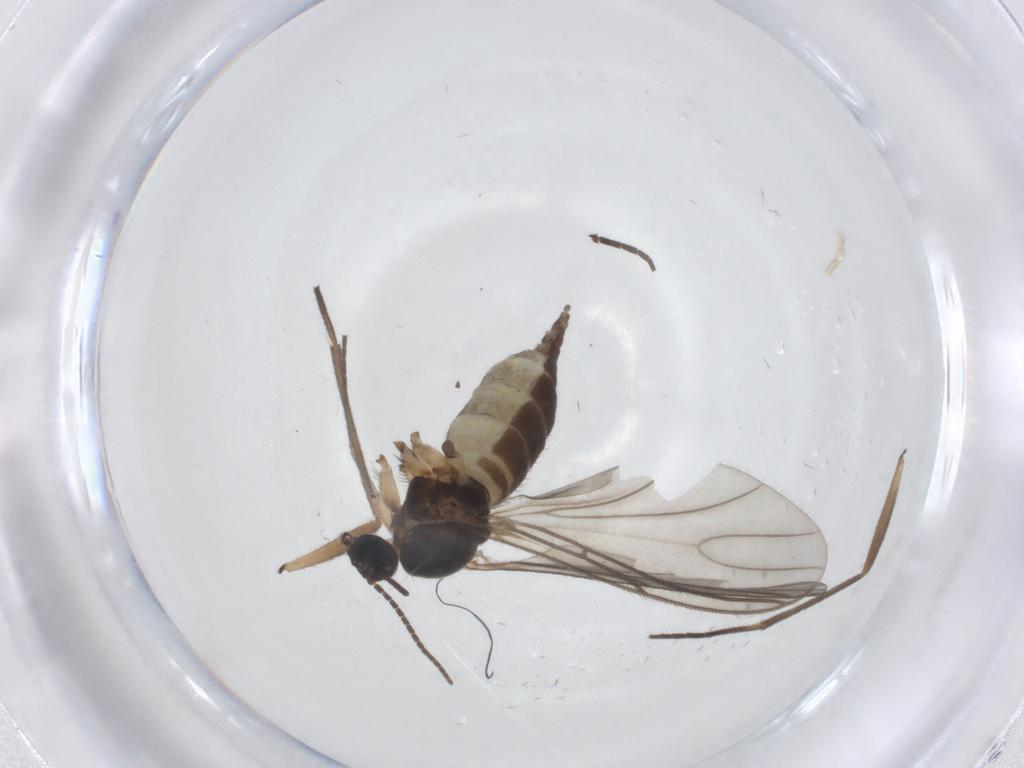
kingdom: Animalia
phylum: Arthropoda
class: Insecta
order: Diptera
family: Sciaridae
